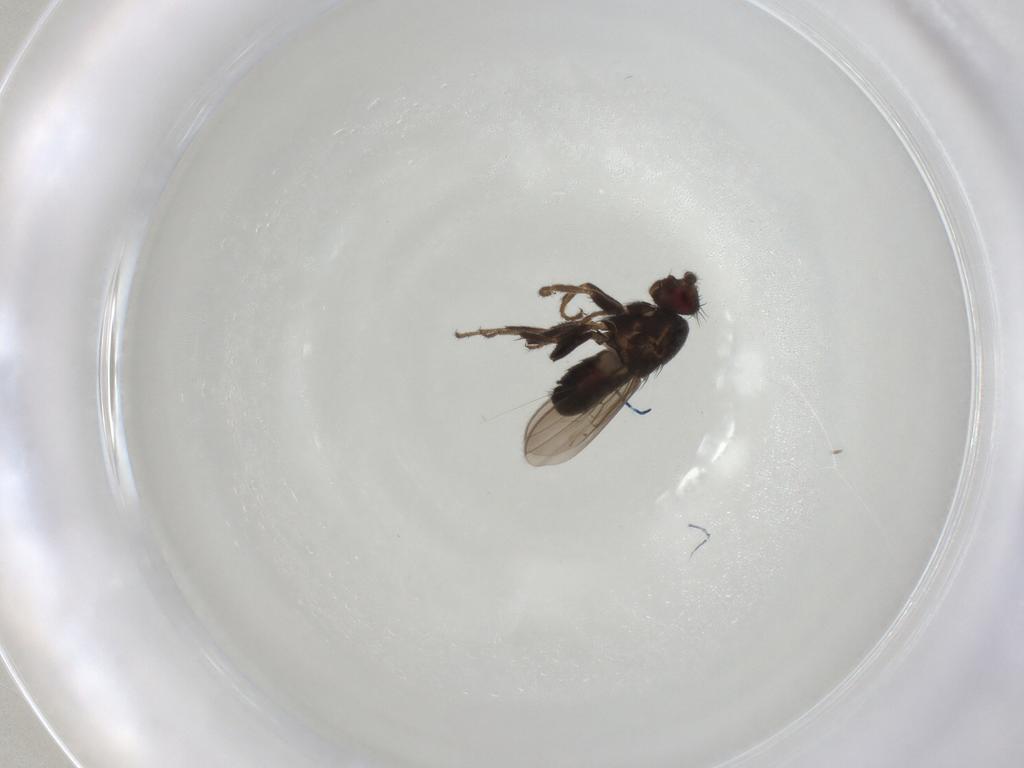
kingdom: Animalia
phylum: Arthropoda
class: Insecta
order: Diptera
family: Sphaeroceridae
